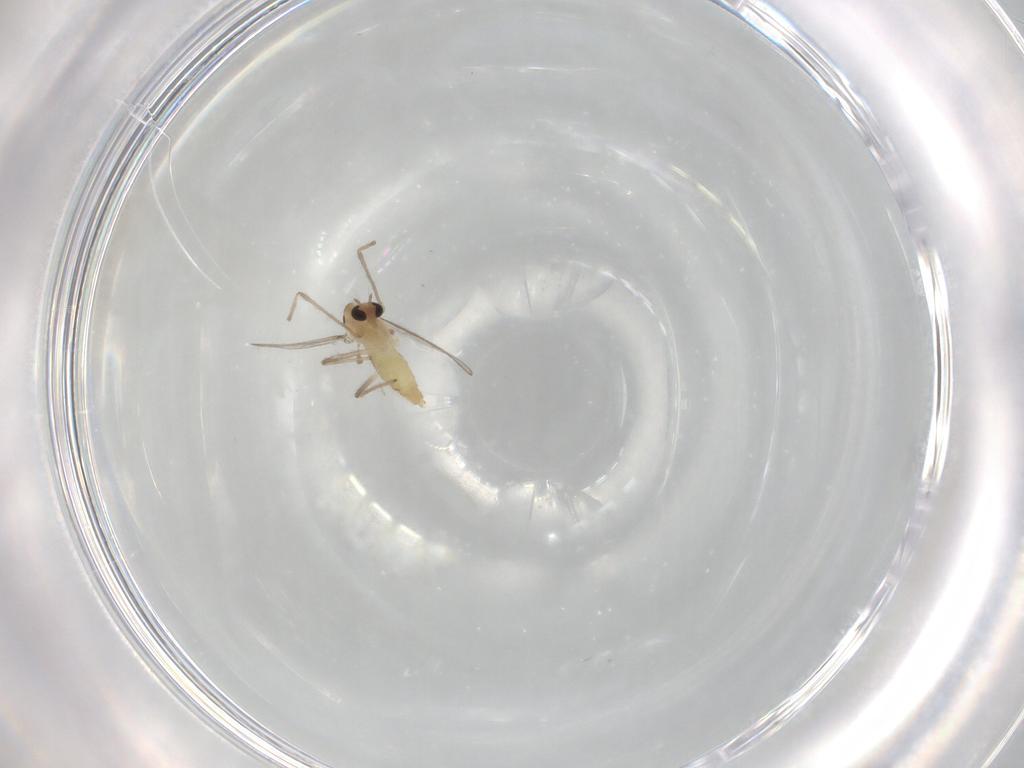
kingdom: Animalia
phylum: Arthropoda
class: Insecta
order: Diptera
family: Chironomidae
